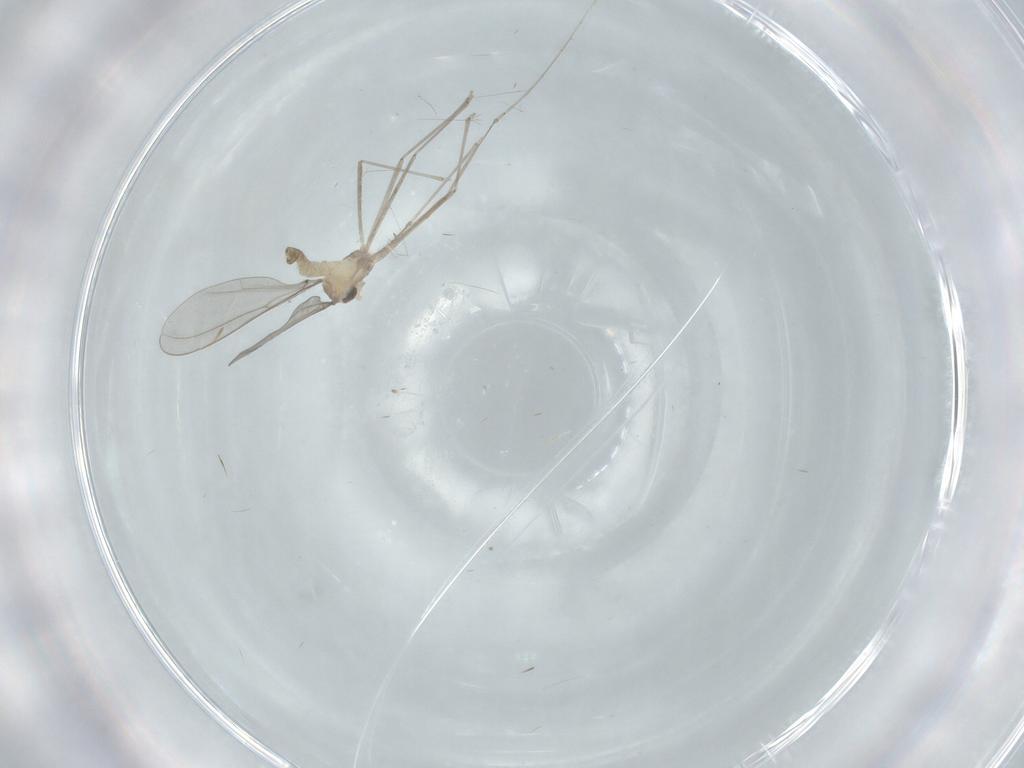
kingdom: Animalia
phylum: Arthropoda
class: Insecta
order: Diptera
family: Cecidomyiidae
